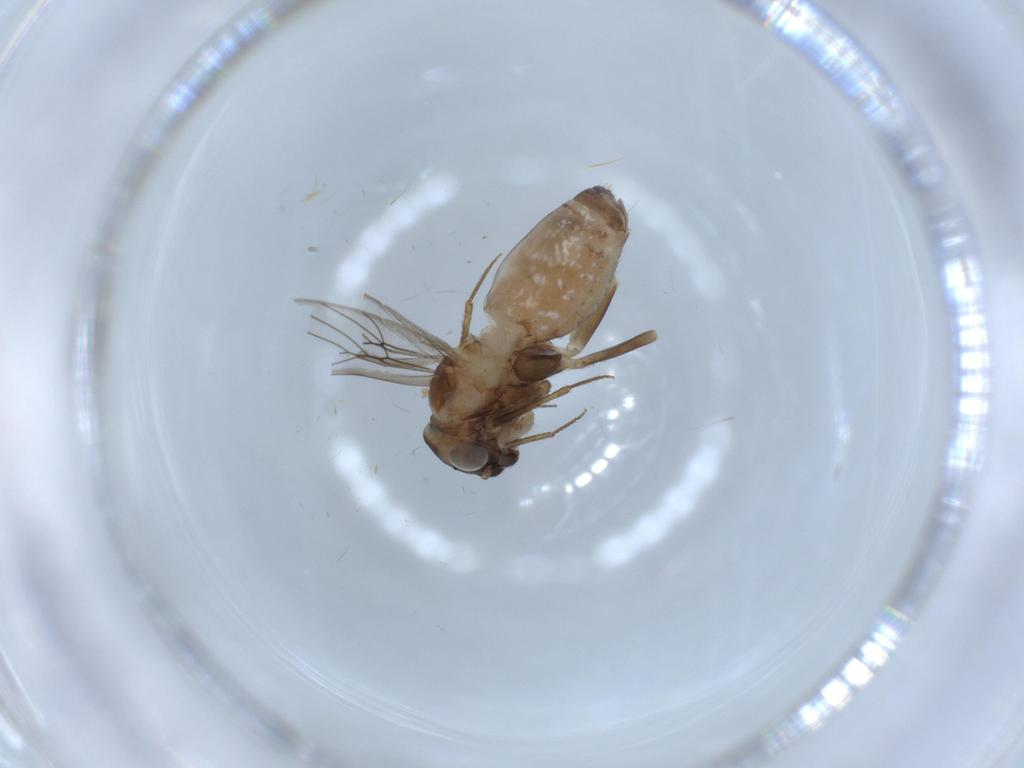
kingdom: Animalia
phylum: Arthropoda
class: Insecta
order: Psocodea
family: Lepidopsocidae
